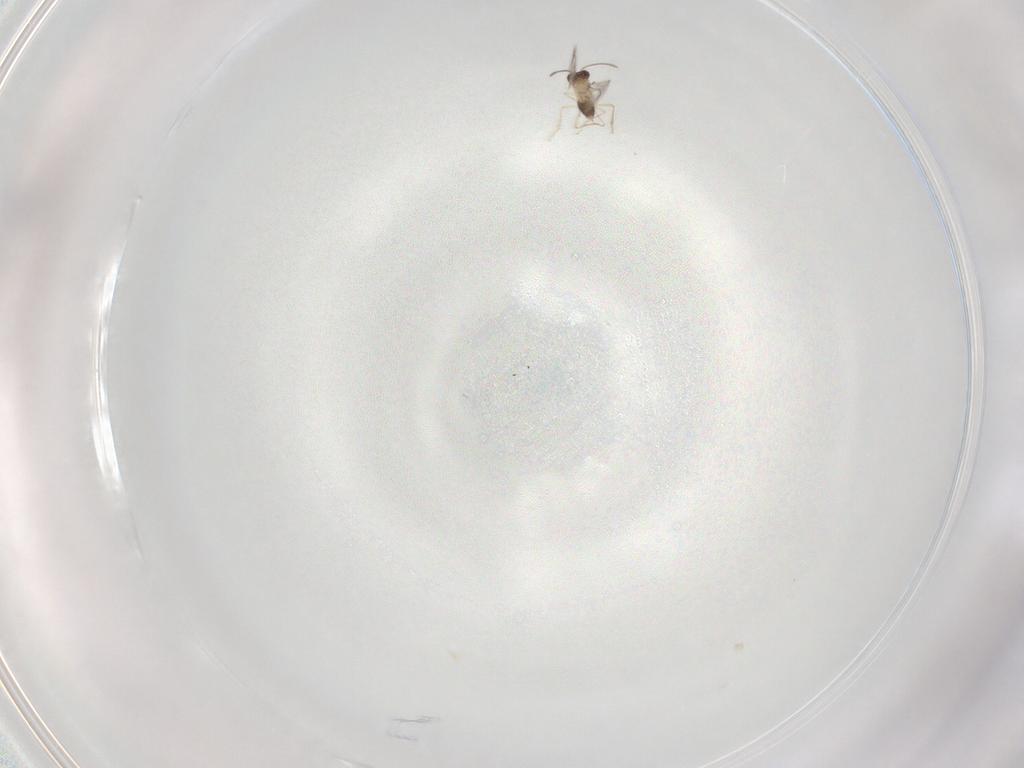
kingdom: Animalia
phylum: Arthropoda
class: Insecta
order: Hymenoptera
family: Mymaridae
